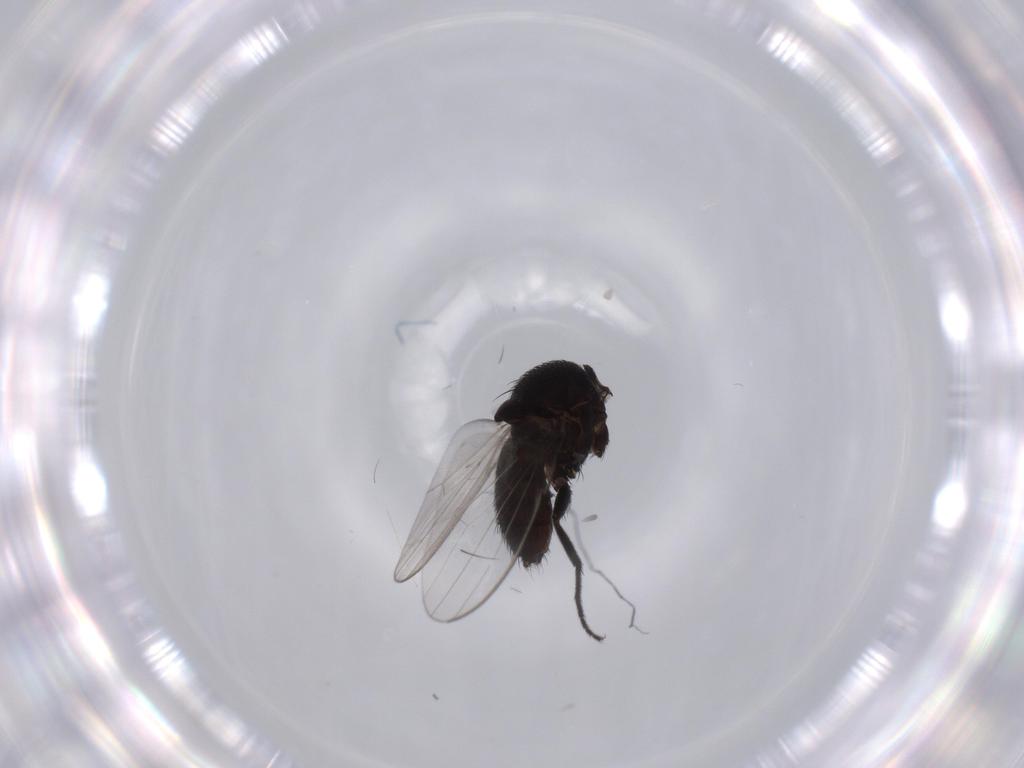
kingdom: Animalia
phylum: Arthropoda
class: Insecta
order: Diptera
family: Milichiidae
